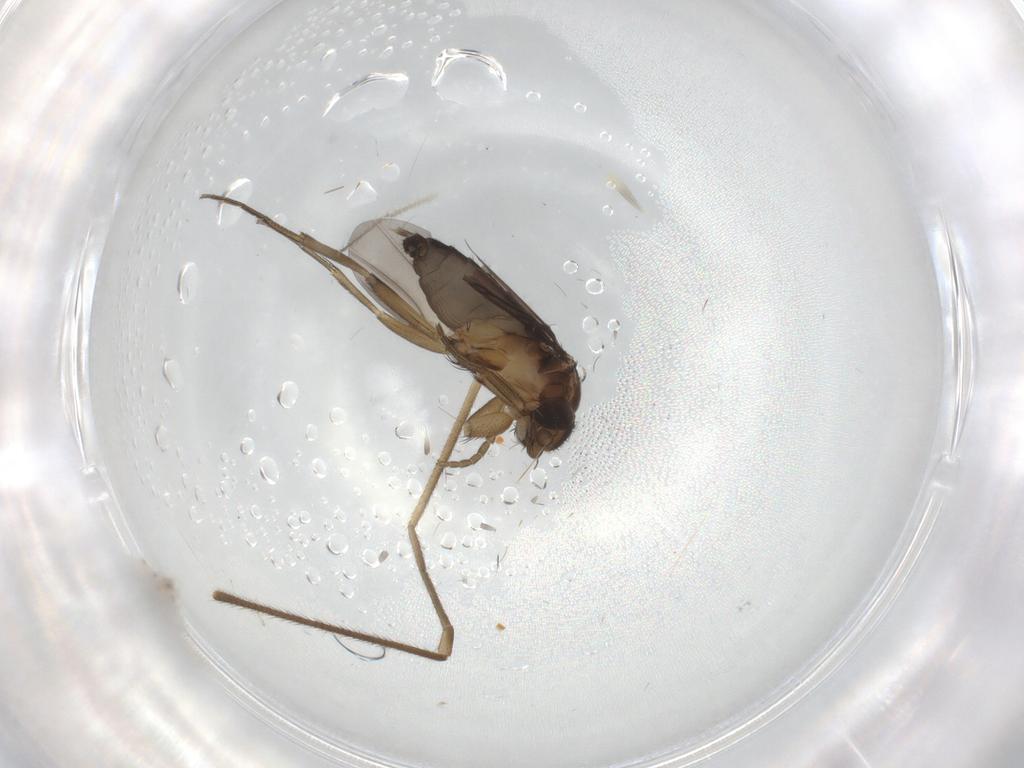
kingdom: Animalia
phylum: Arthropoda
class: Insecta
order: Diptera
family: Phoridae
